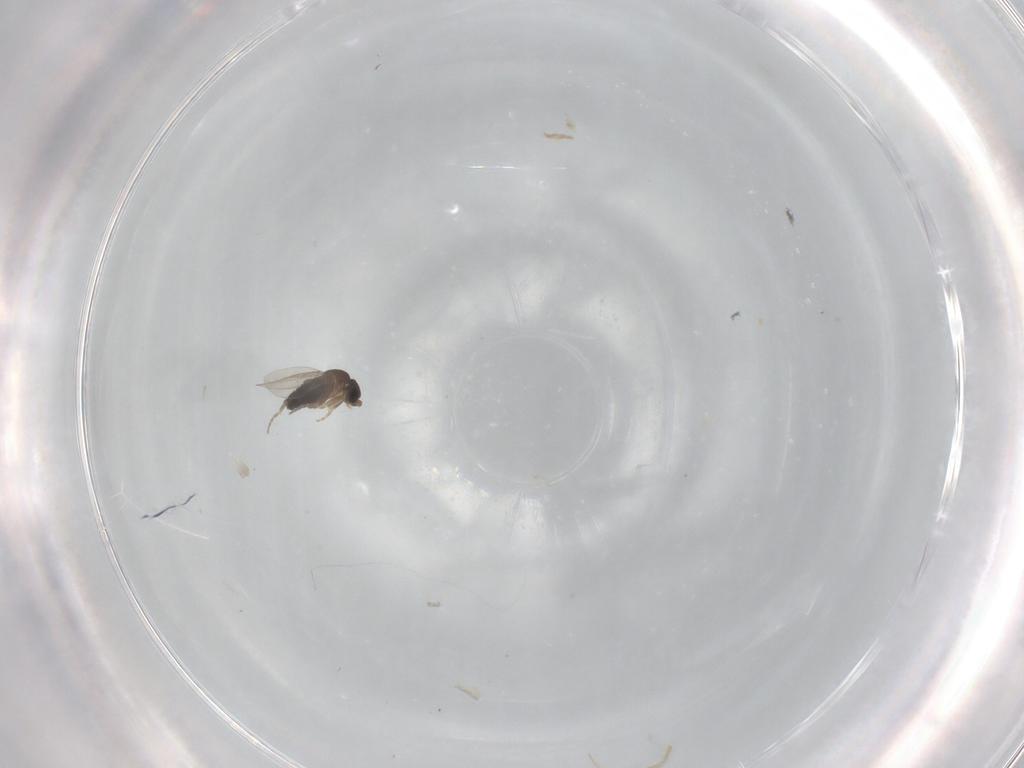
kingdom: Animalia
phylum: Arthropoda
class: Insecta
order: Diptera
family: Phoridae
